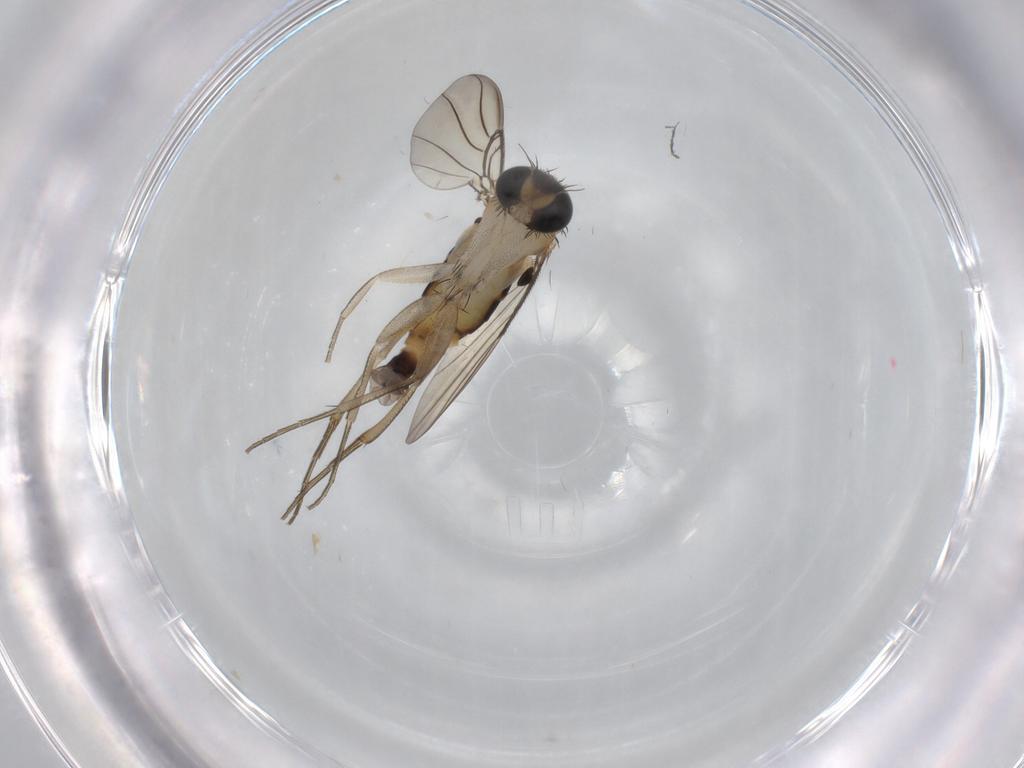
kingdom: Animalia
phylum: Arthropoda
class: Insecta
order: Diptera
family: Phoridae
